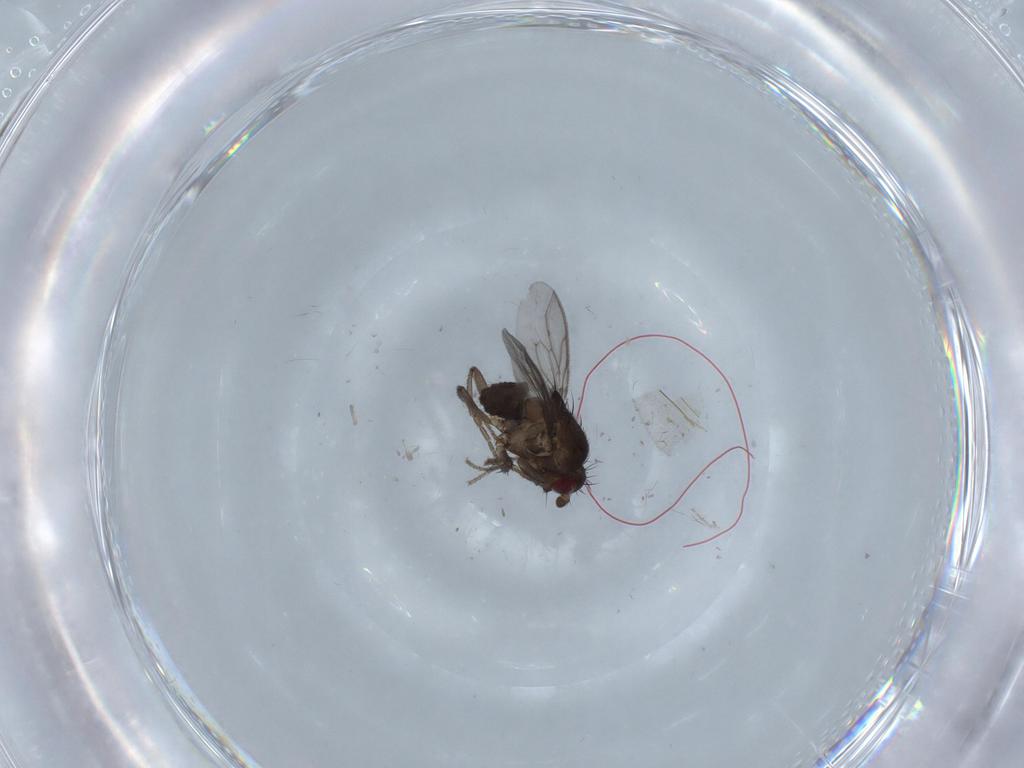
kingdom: Animalia
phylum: Arthropoda
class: Insecta
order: Diptera
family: Sphaeroceridae
